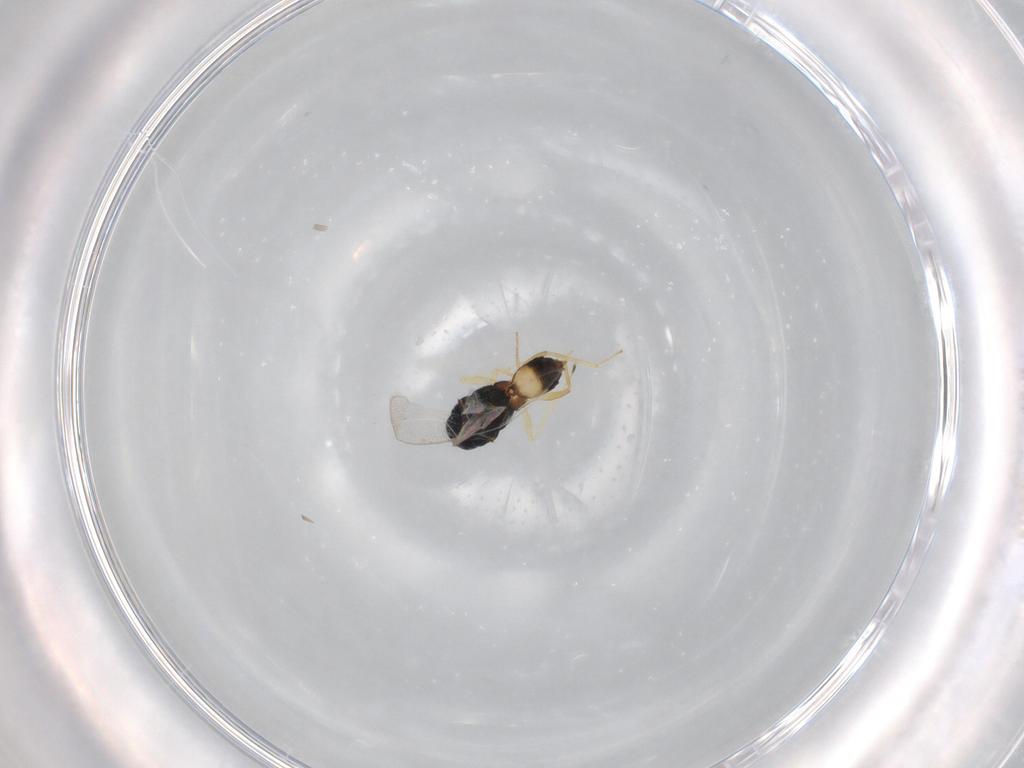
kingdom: Animalia
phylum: Arthropoda
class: Insecta
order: Hymenoptera
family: Eulophidae
